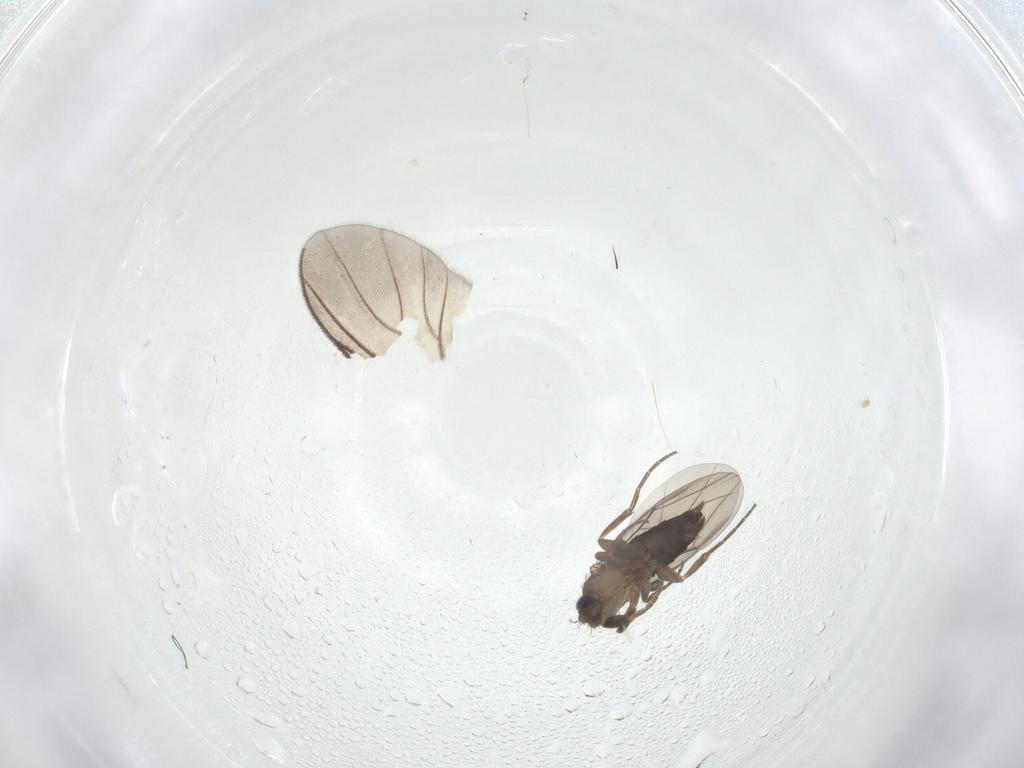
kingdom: Animalia
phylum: Arthropoda
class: Insecta
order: Diptera
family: Phoridae
